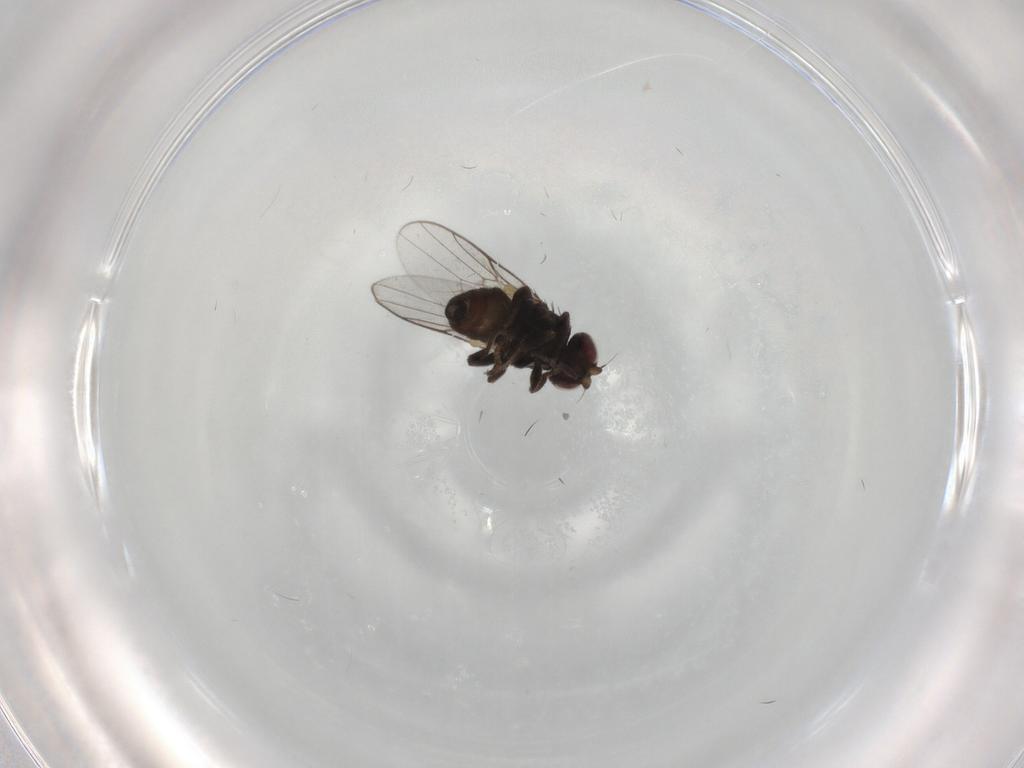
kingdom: Animalia
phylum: Arthropoda
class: Insecta
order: Diptera
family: Chloropidae
